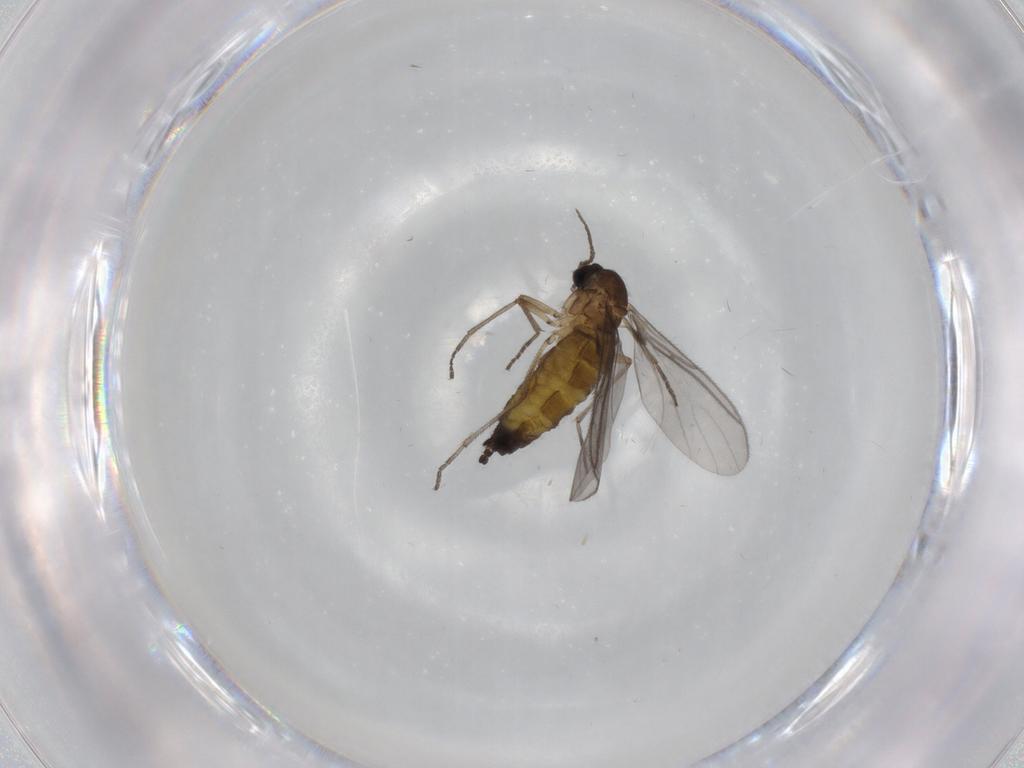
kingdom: Animalia
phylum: Arthropoda
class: Insecta
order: Diptera
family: Sciaridae
